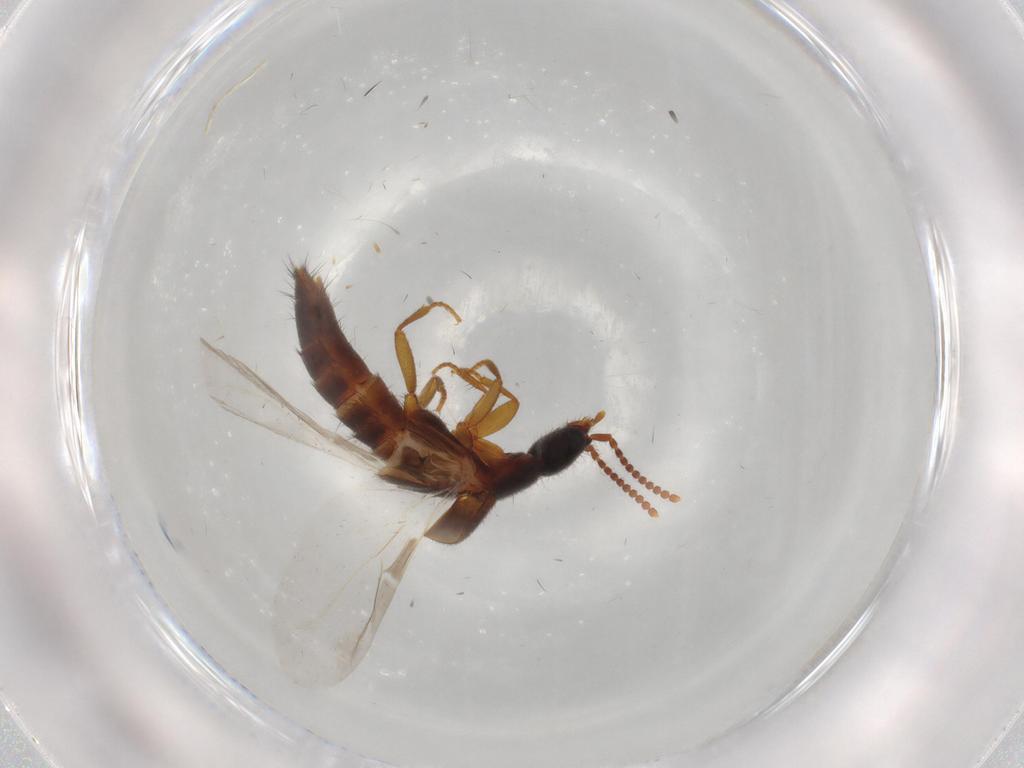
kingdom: Animalia
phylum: Arthropoda
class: Insecta
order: Coleoptera
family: Staphylinidae
